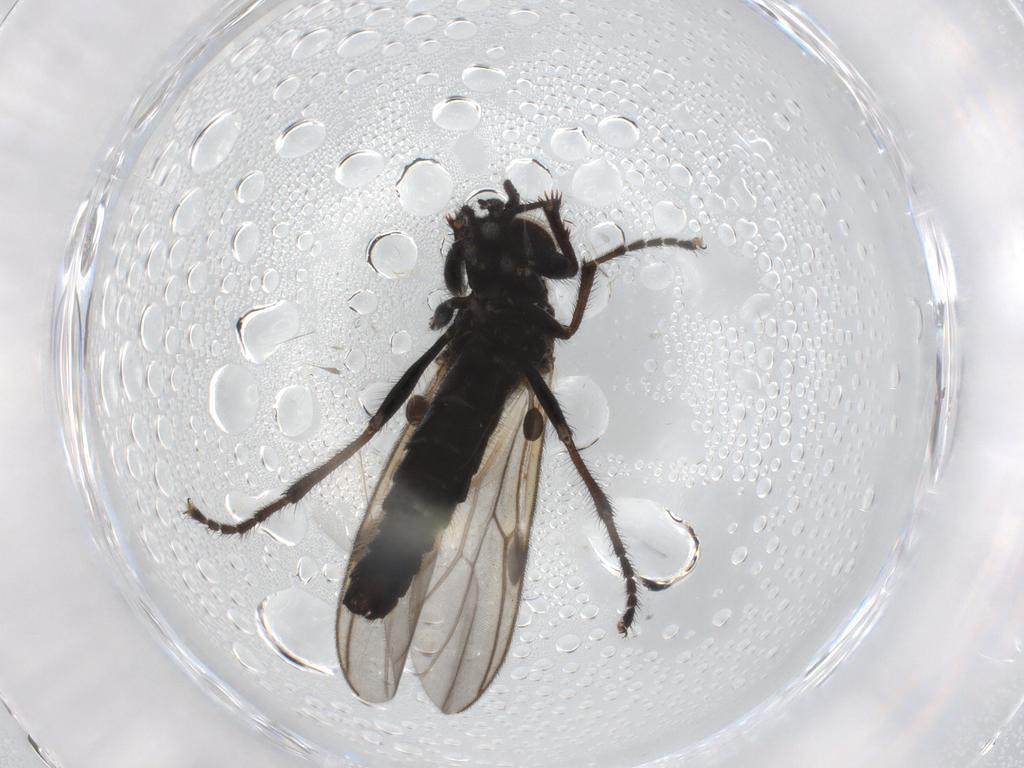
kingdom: Animalia
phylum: Arthropoda
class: Insecta
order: Diptera
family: Bibionidae
